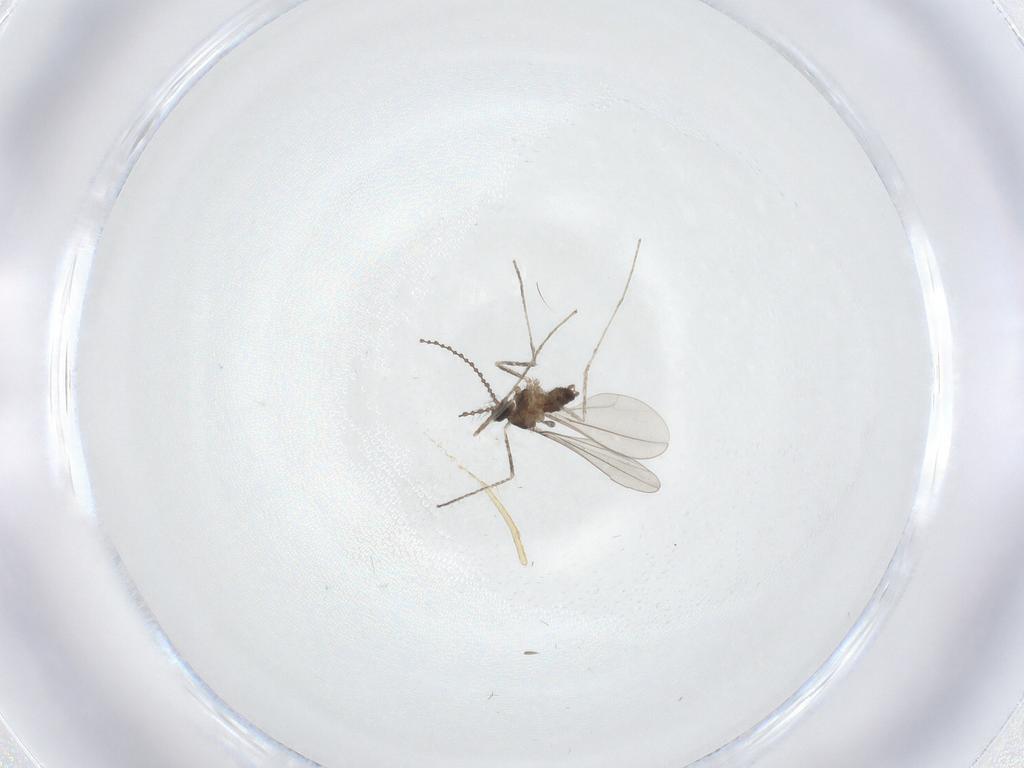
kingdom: Animalia
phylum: Arthropoda
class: Insecta
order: Diptera
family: Cecidomyiidae
